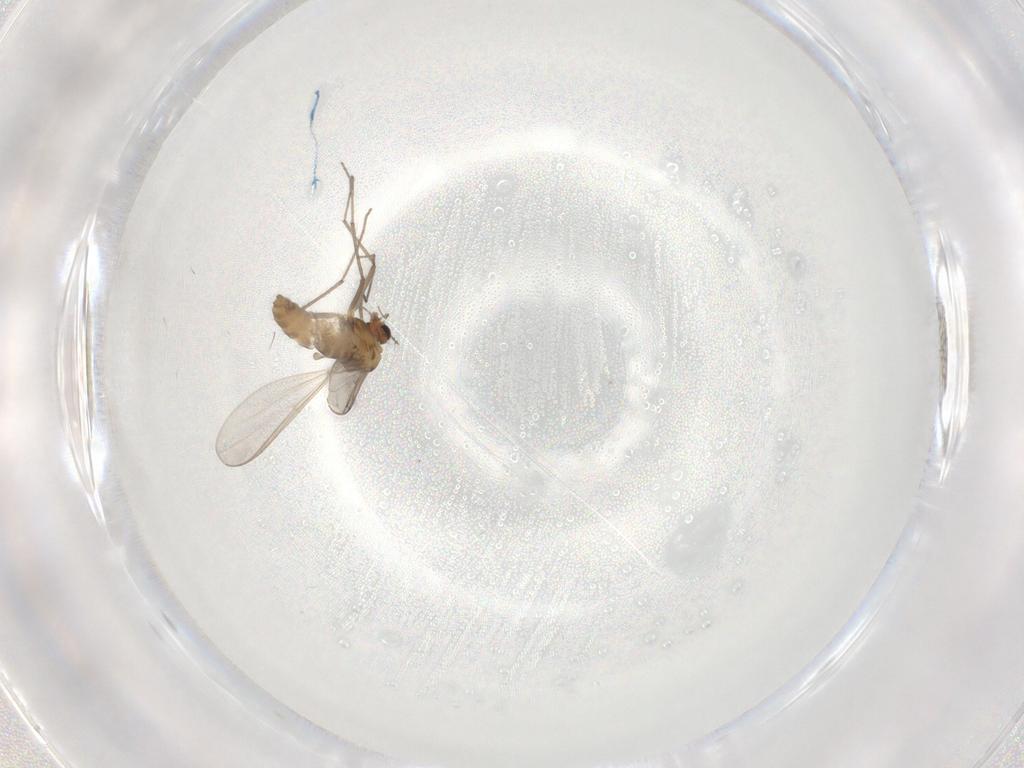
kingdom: Animalia
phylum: Arthropoda
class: Insecta
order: Diptera
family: Chironomidae
